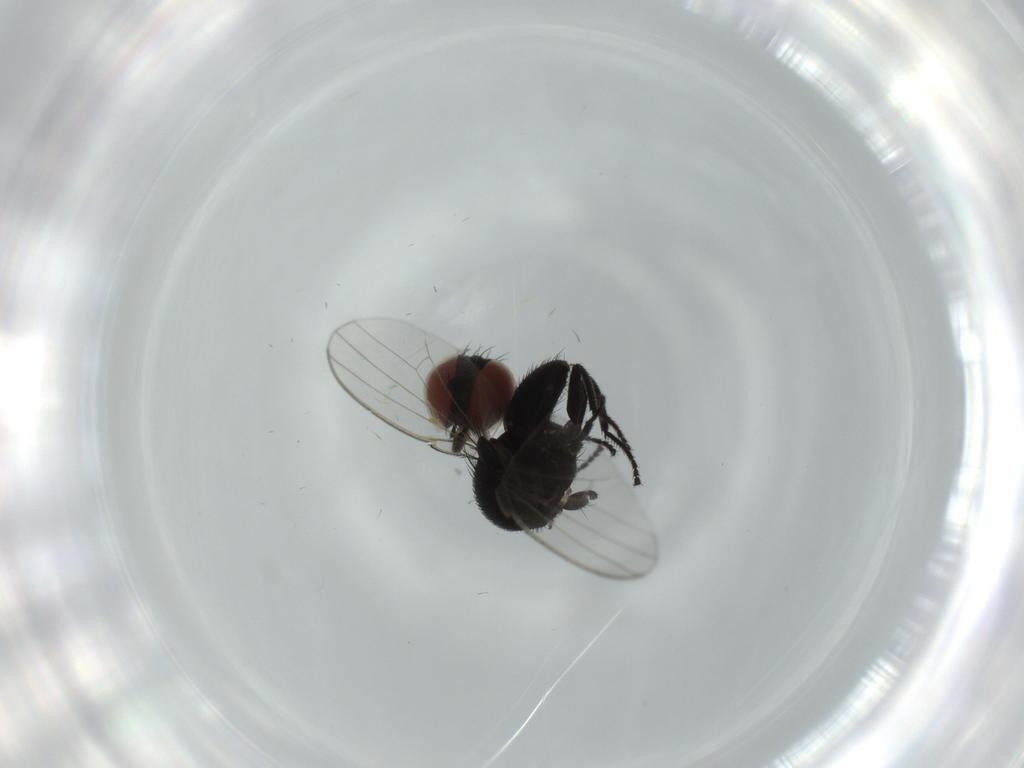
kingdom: Animalia
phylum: Arthropoda
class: Insecta
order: Diptera
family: Milichiidae
